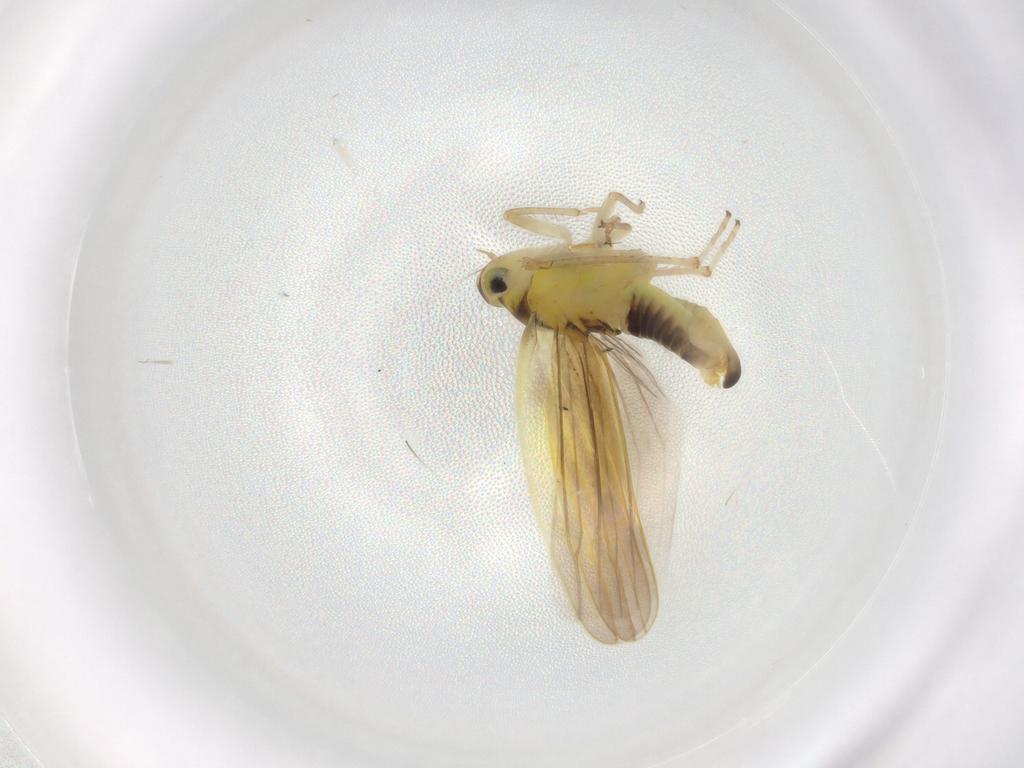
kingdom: Animalia
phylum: Arthropoda
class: Insecta
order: Hemiptera
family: Cicadellidae
